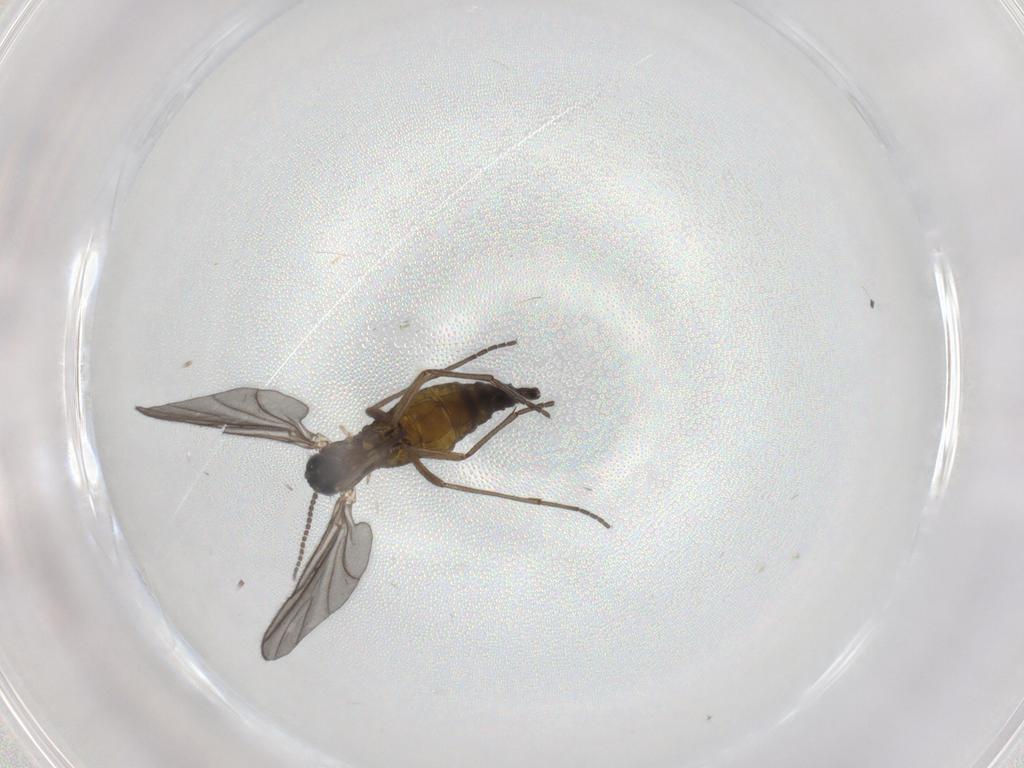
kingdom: Animalia
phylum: Arthropoda
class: Insecta
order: Diptera
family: Sciaridae
